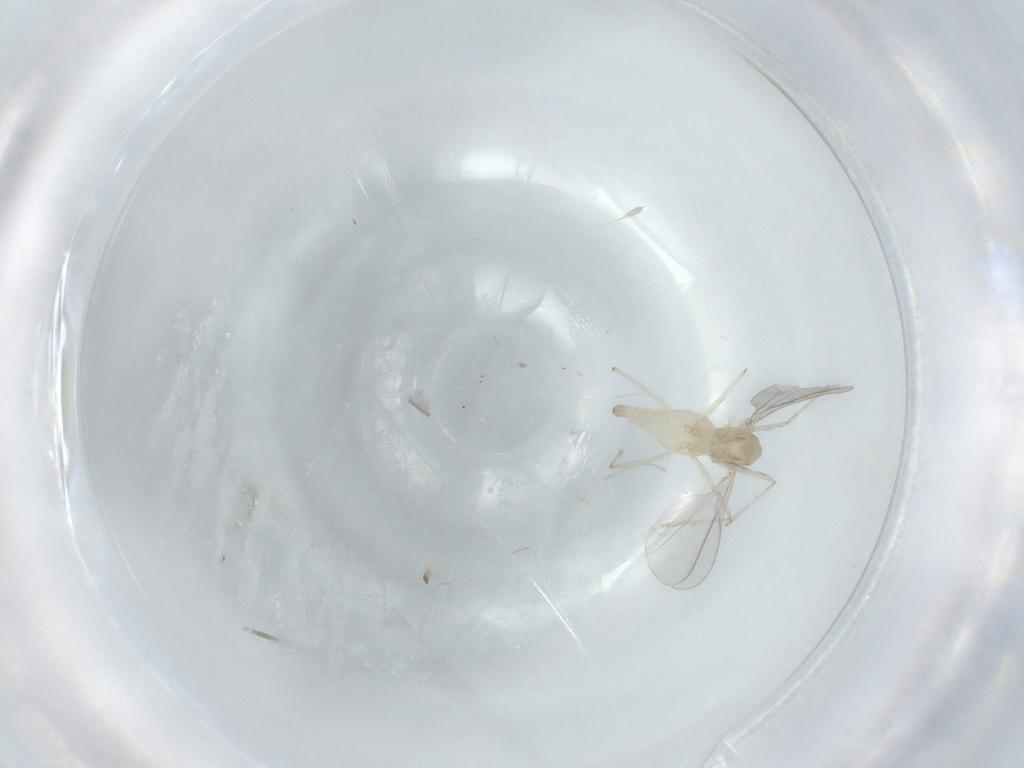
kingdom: Animalia
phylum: Arthropoda
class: Insecta
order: Diptera
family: Cecidomyiidae
